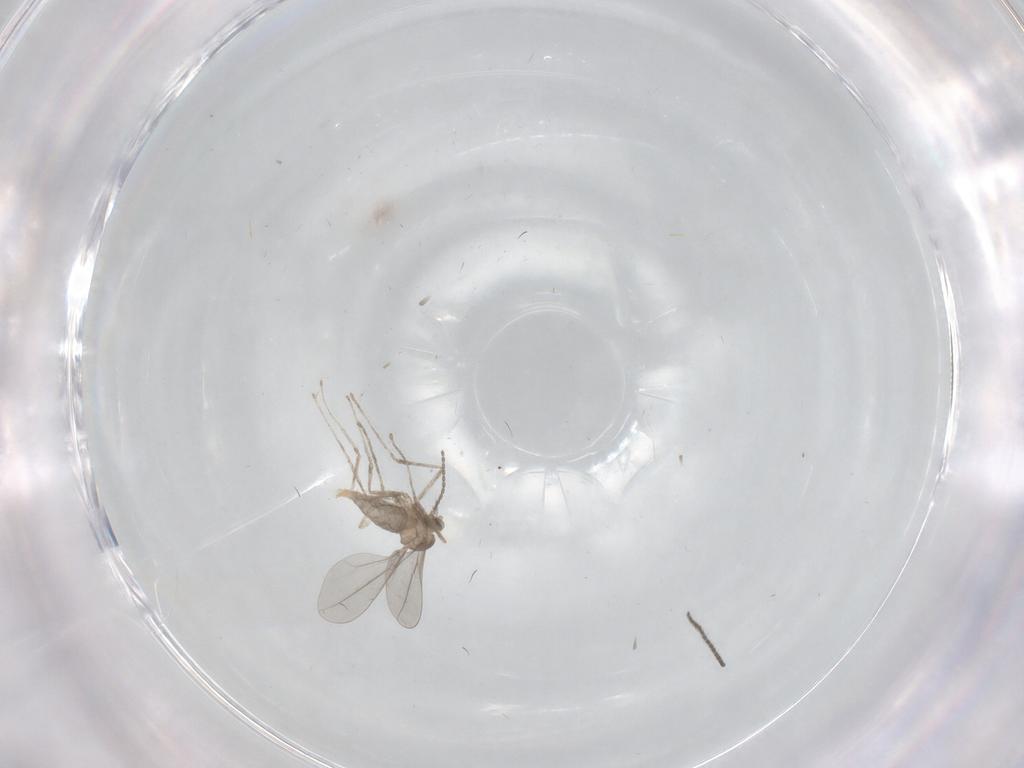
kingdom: Animalia
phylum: Arthropoda
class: Insecta
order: Diptera
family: Cecidomyiidae
